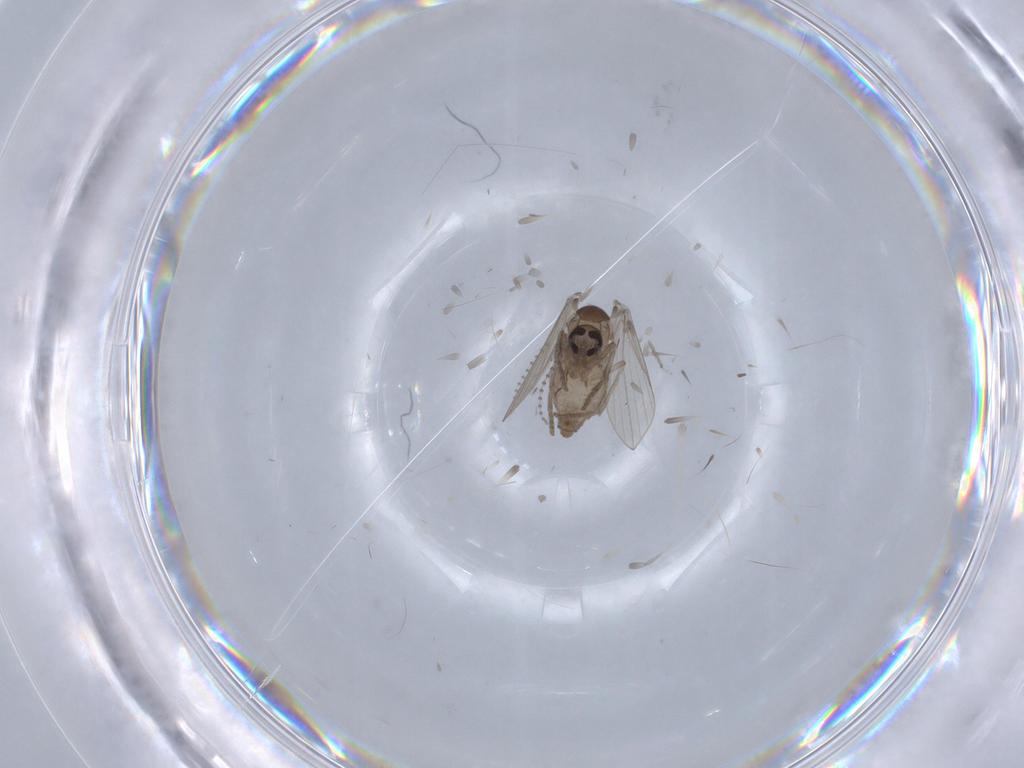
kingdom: Animalia
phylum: Arthropoda
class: Insecta
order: Diptera
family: Psychodidae
